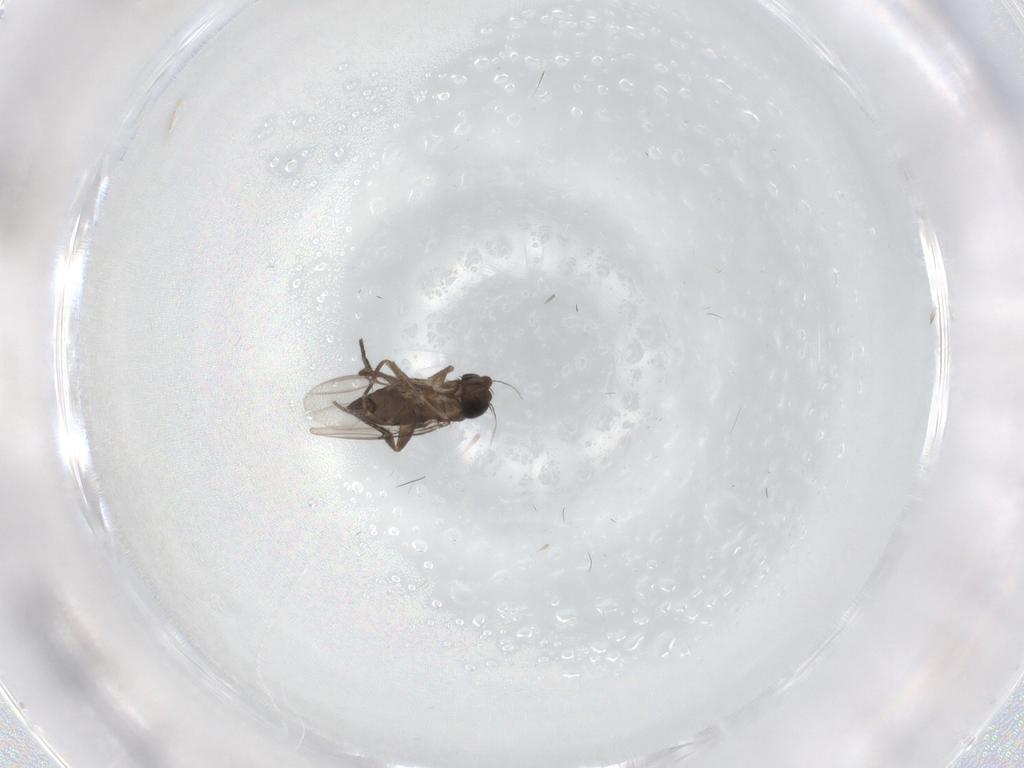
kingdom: Animalia
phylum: Arthropoda
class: Insecta
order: Diptera
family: Phoridae
